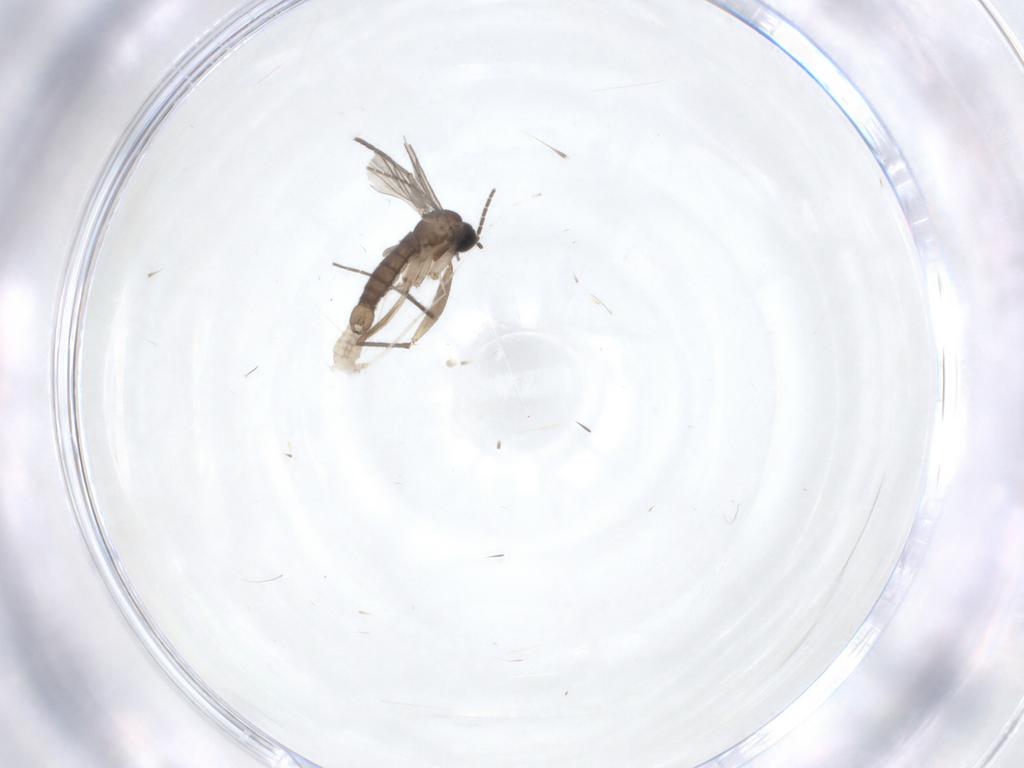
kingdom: Animalia
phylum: Arthropoda
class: Insecta
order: Diptera
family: Cecidomyiidae
